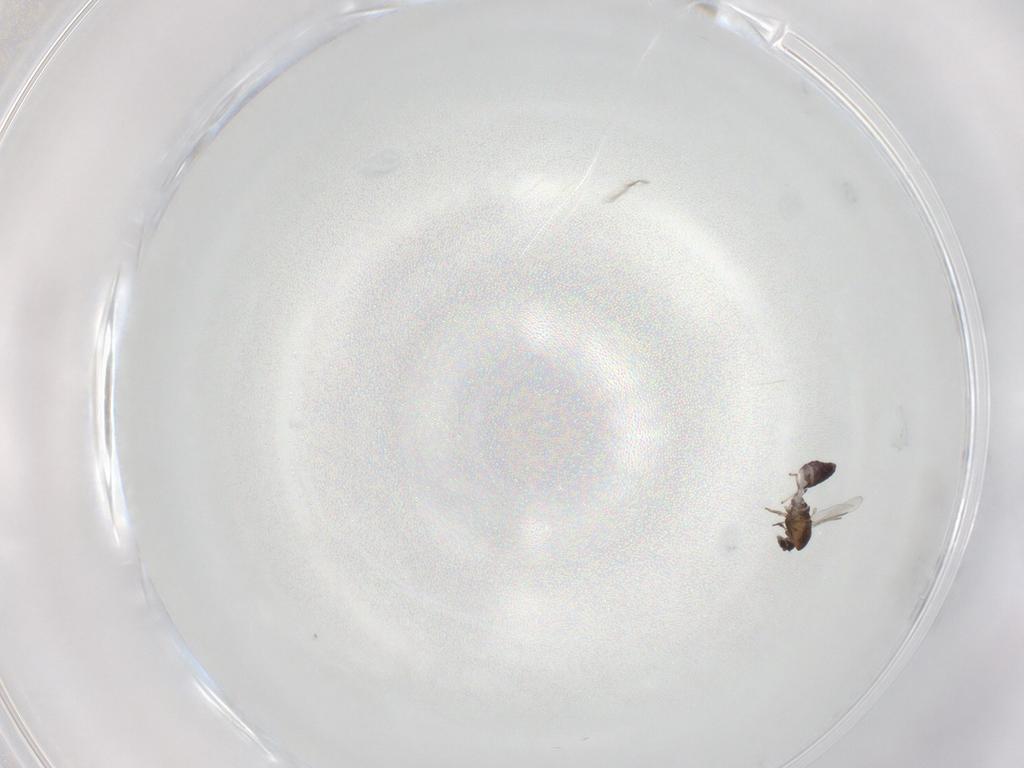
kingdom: Animalia
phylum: Arthropoda
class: Insecta
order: Diptera
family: Chironomidae
